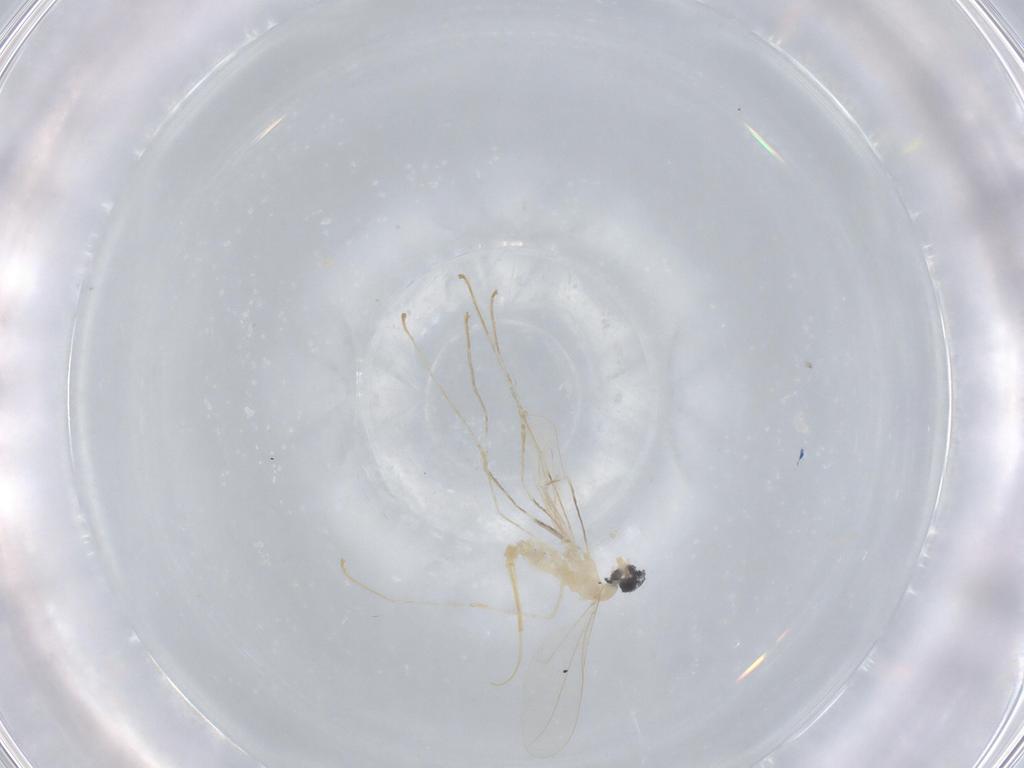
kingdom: Animalia
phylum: Arthropoda
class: Insecta
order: Diptera
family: Cecidomyiidae
